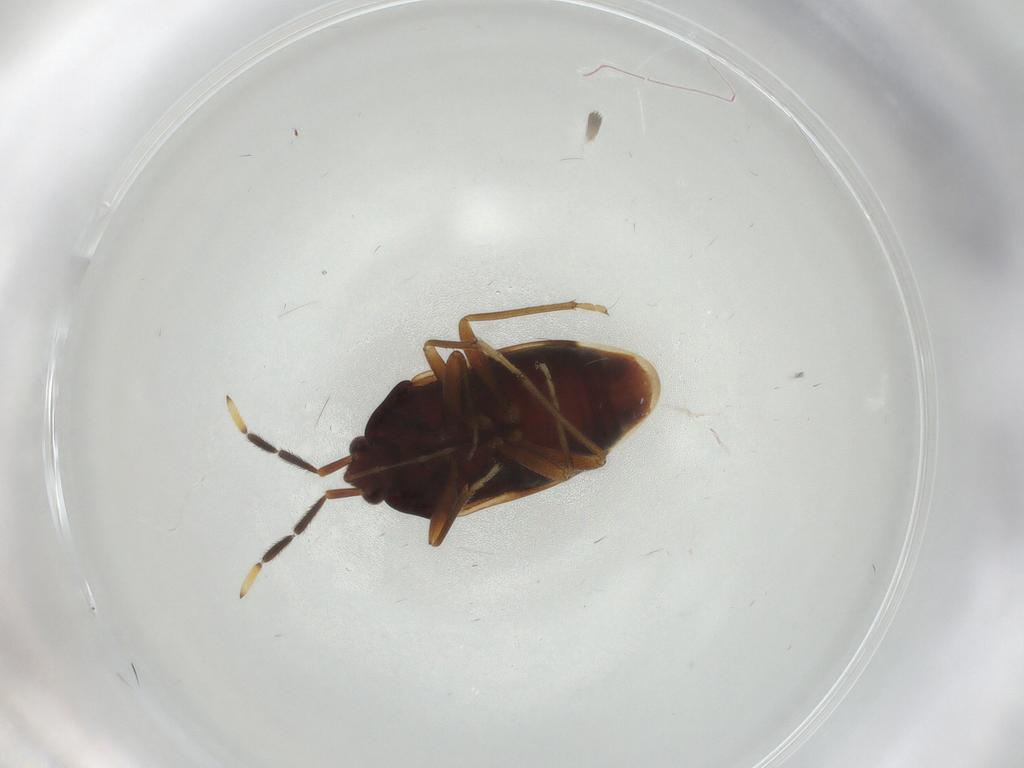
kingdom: Animalia
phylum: Arthropoda
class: Insecta
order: Hemiptera
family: Rhyparochromidae
